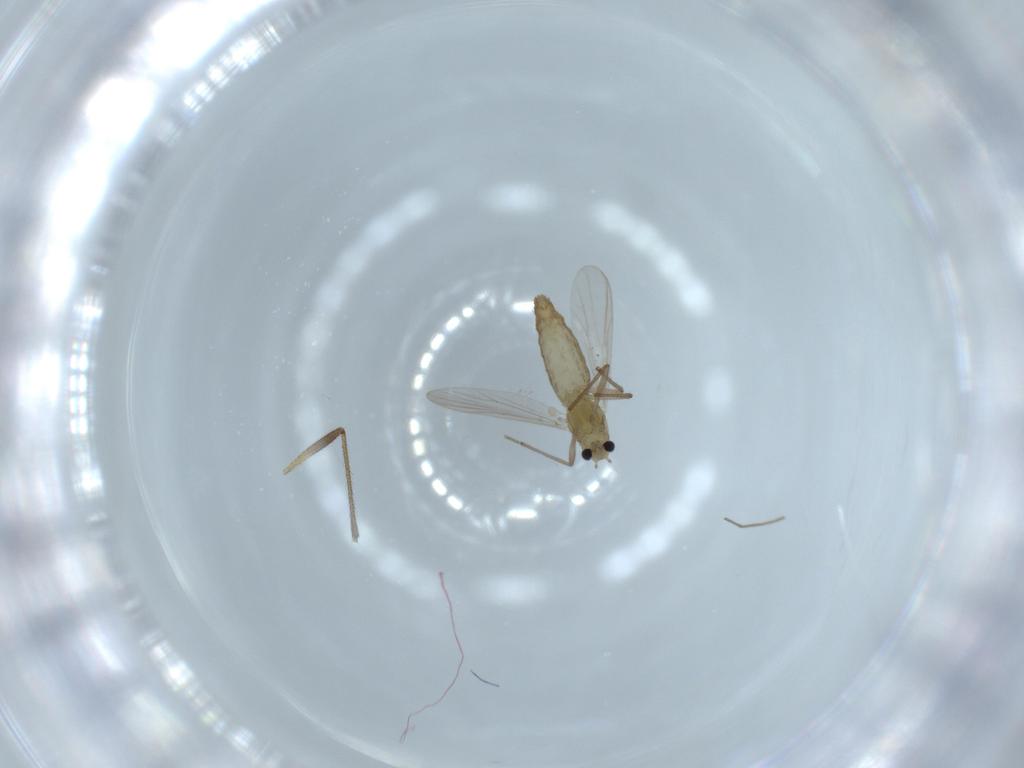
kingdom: Animalia
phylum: Arthropoda
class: Insecta
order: Diptera
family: Chironomidae
